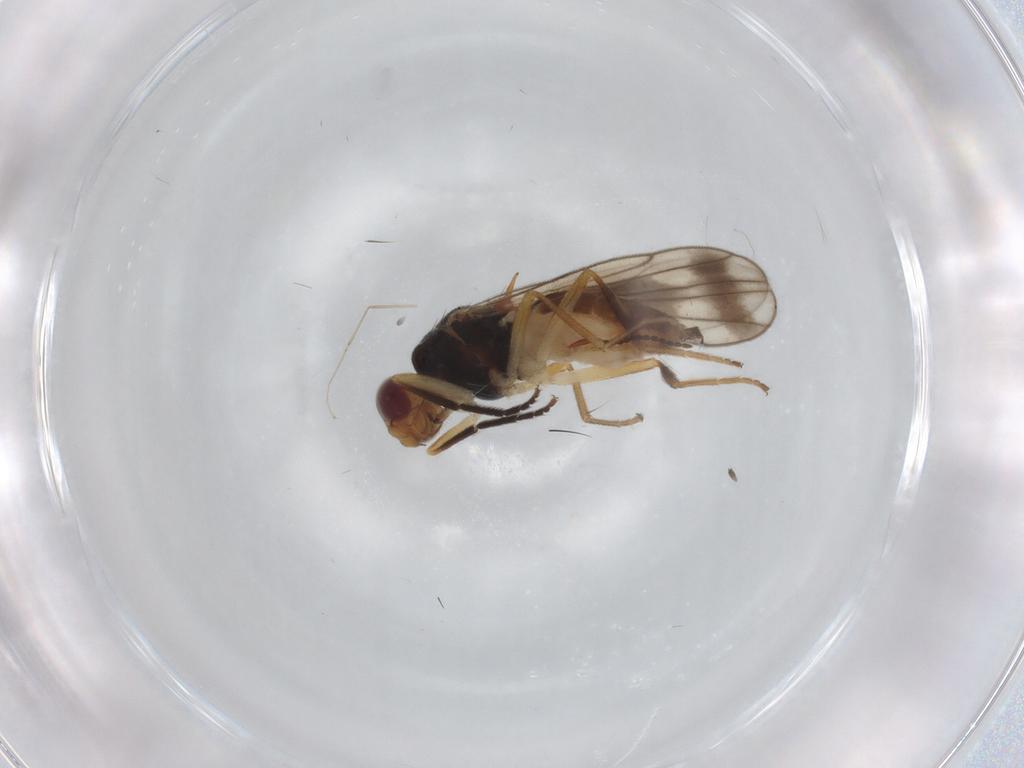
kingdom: Animalia
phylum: Arthropoda
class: Insecta
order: Diptera
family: Chloropidae
